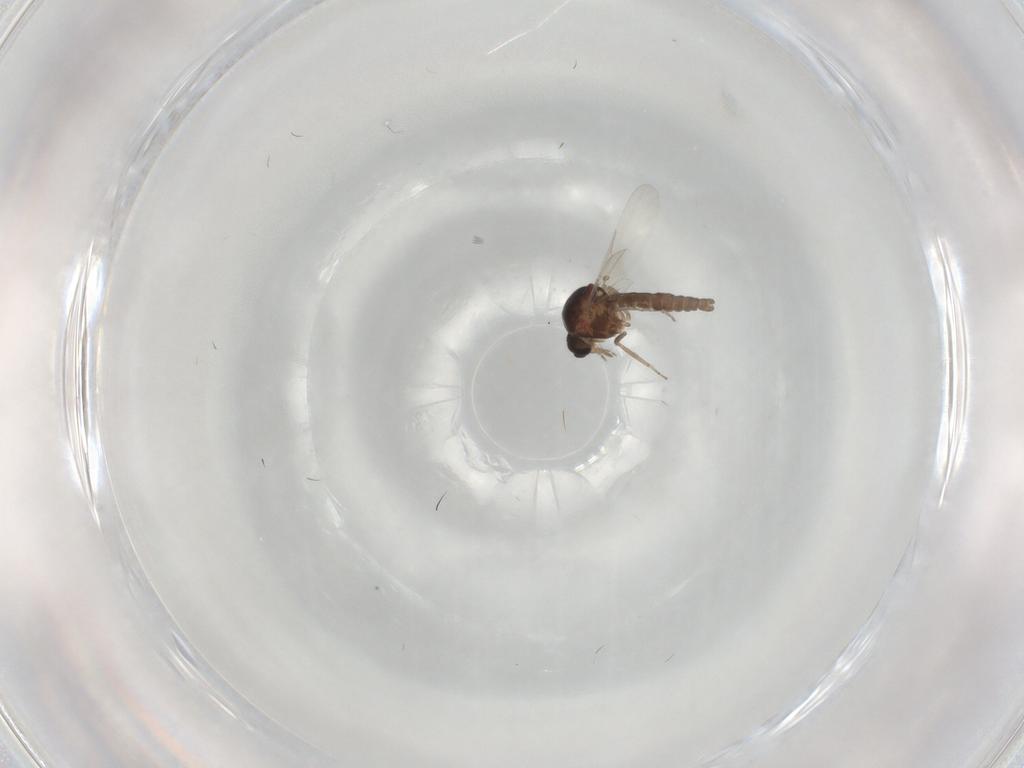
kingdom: Animalia
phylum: Arthropoda
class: Insecta
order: Diptera
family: Ceratopogonidae
